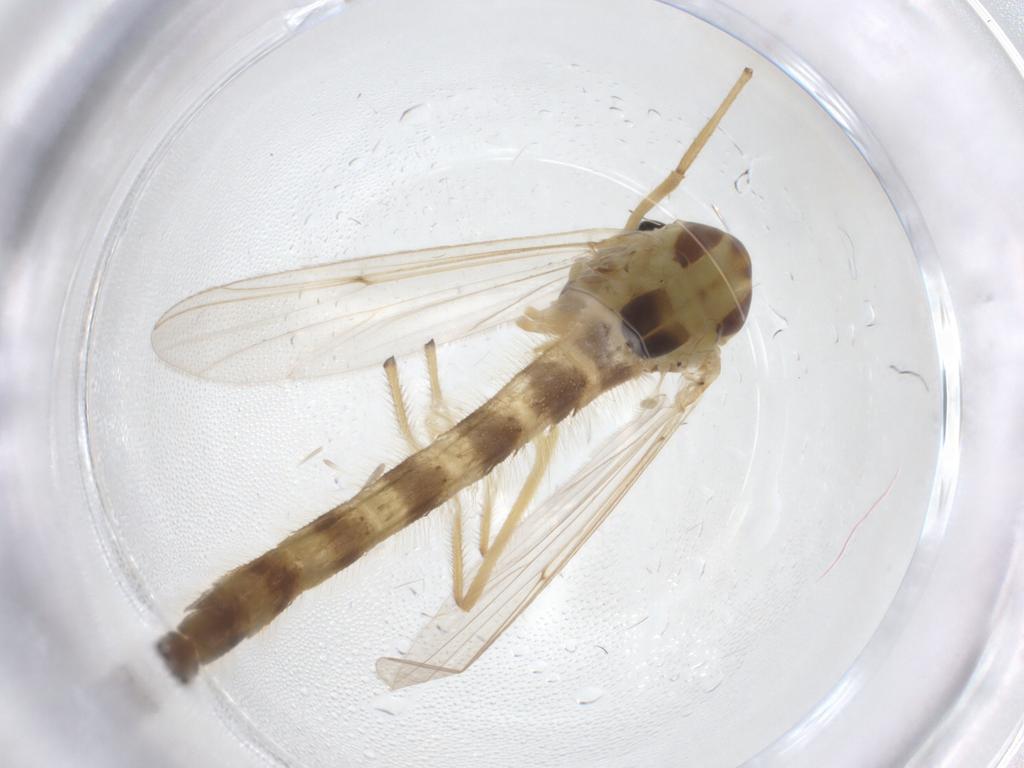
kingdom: Animalia
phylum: Arthropoda
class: Insecta
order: Diptera
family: Chironomidae
